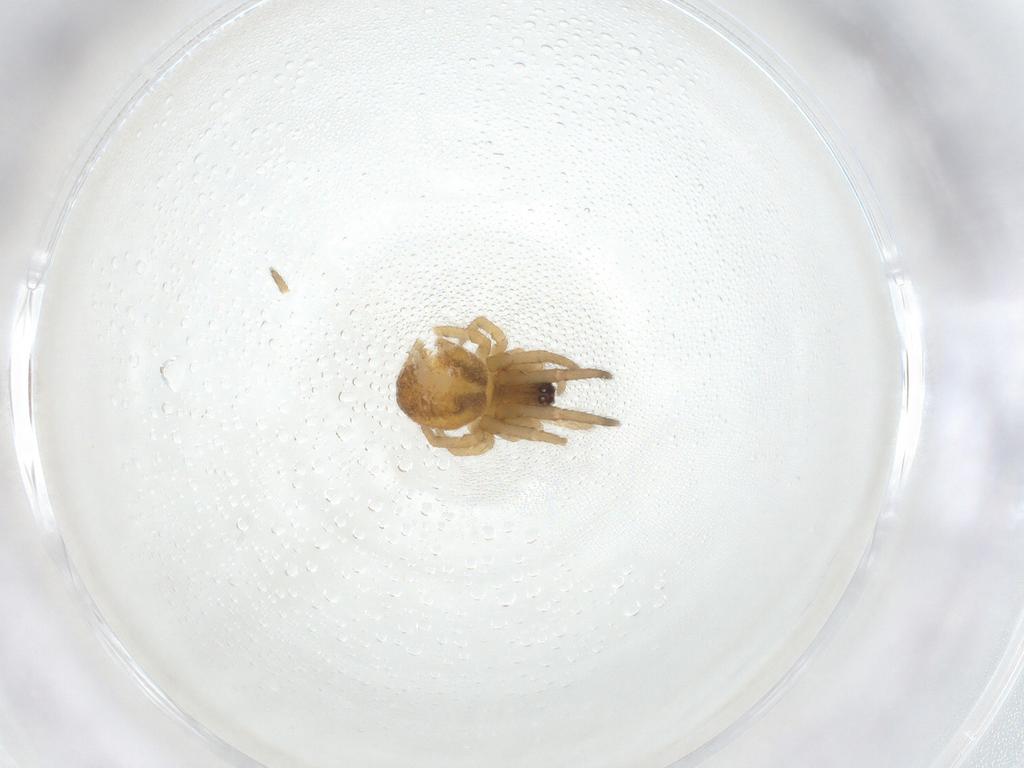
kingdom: Animalia
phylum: Arthropoda
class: Arachnida
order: Araneae
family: Tetragnathidae
